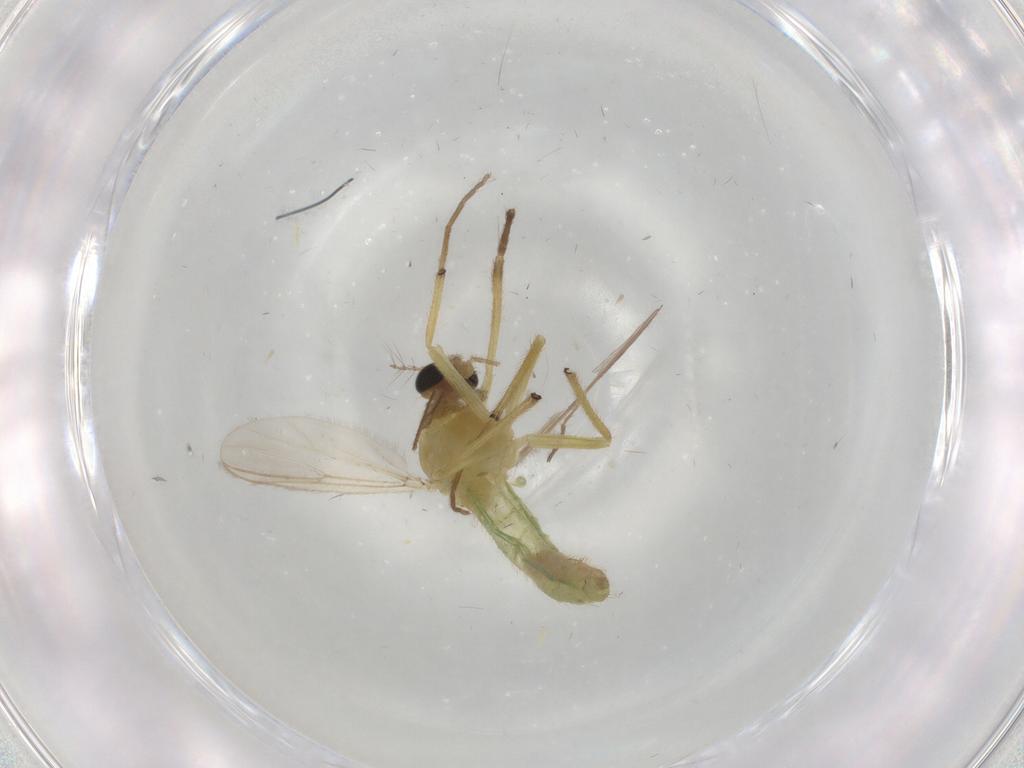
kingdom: Animalia
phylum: Arthropoda
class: Insecta
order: Diptera
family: Chironomidae
